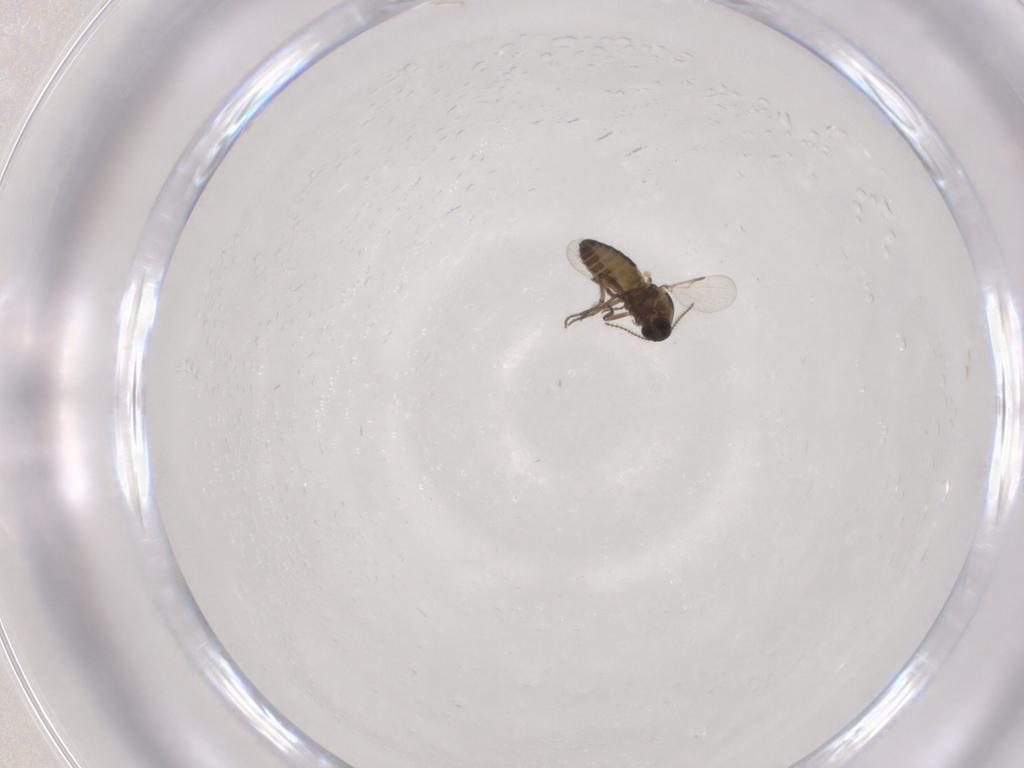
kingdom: Animalia
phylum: Arthropoda
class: Insecta
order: Diptera
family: Ceratopogonidae
